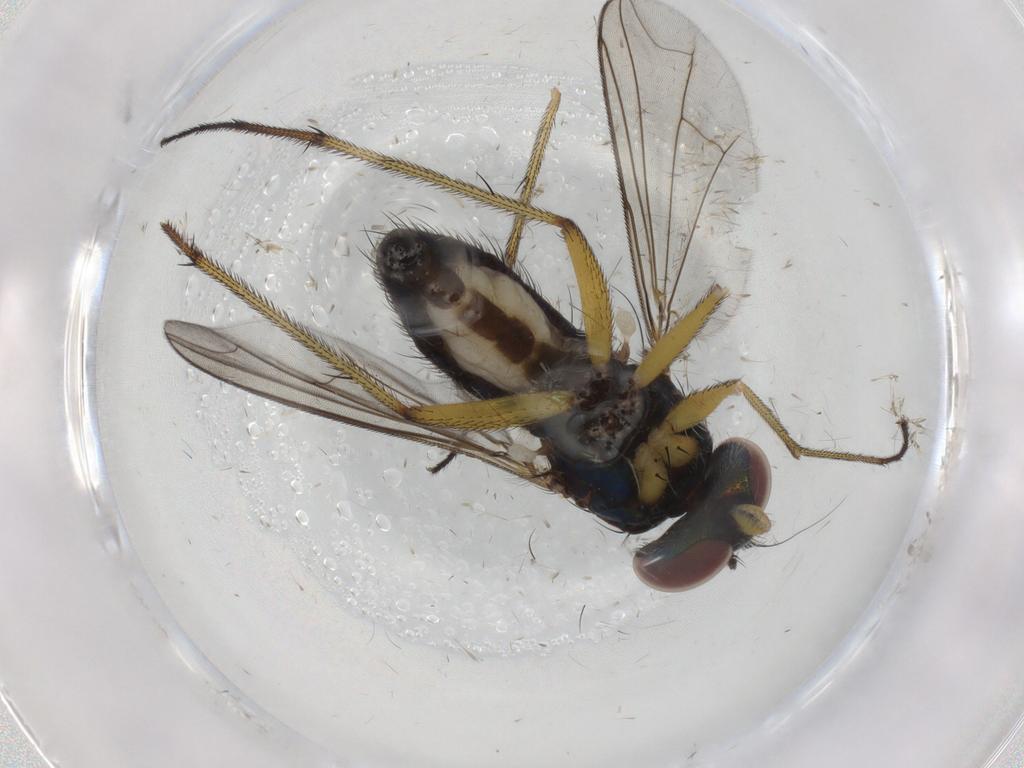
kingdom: Animalia
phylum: Arthropoda
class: Insecta
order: Diptera
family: Dolichopodidae
